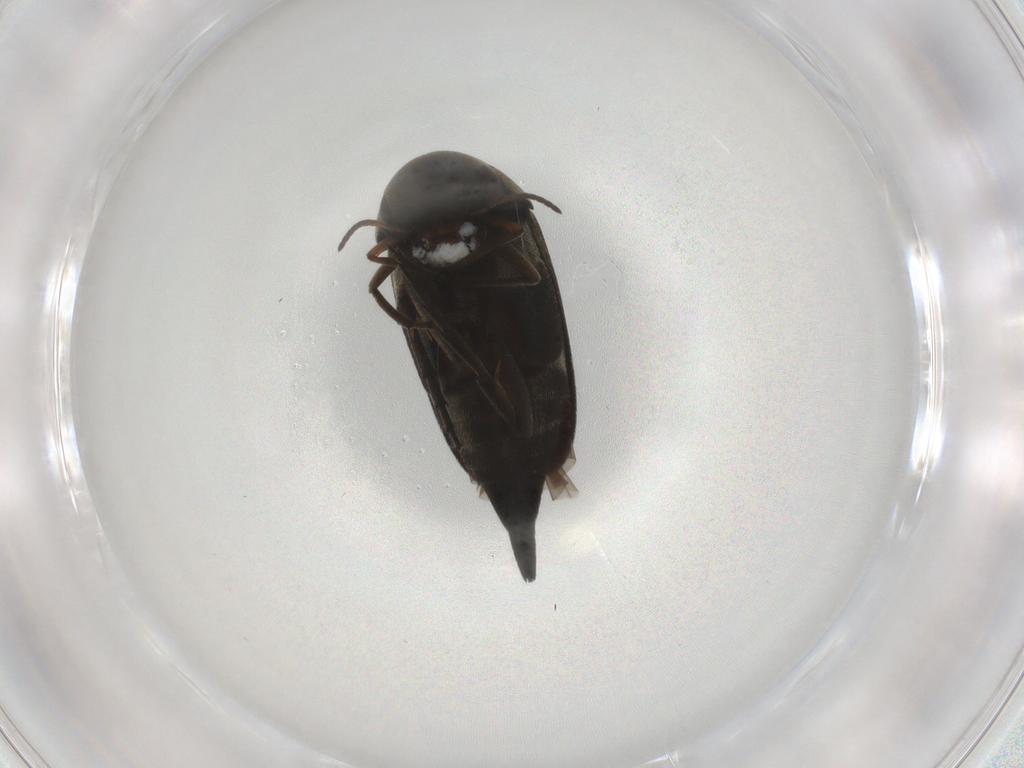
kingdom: Animalia
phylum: Arthropoda
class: Insecta
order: Coleoptera
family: Mordellidae
